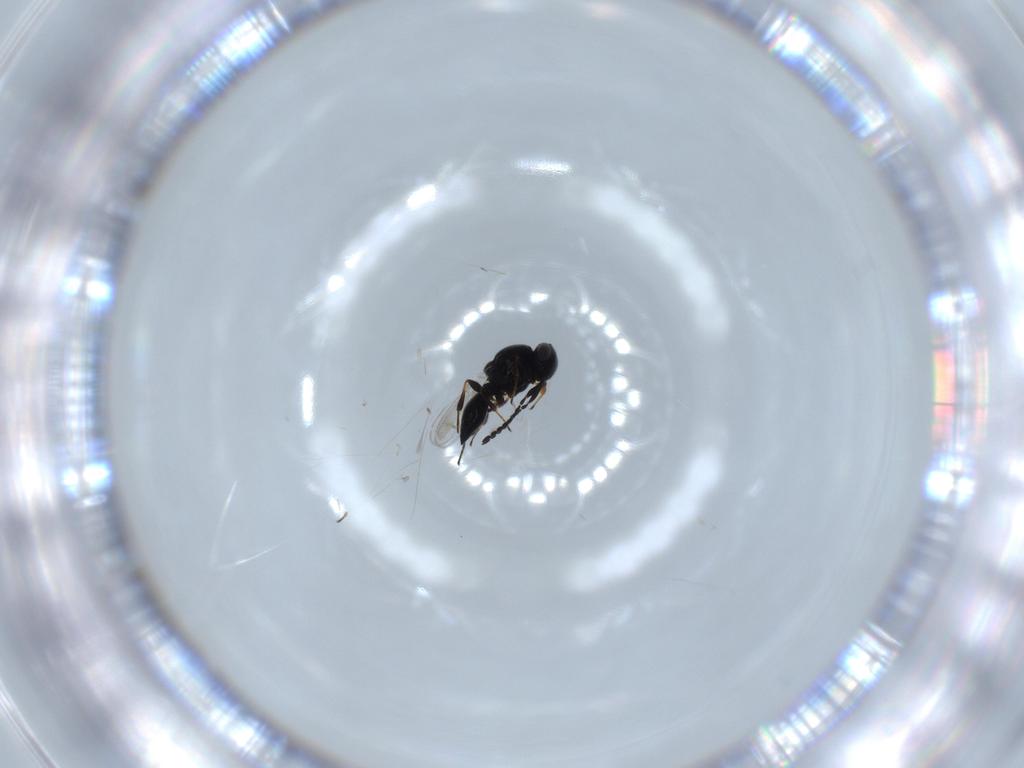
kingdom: Animalia
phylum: Arthropoda
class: Insecta
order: Hymenoptera
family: Platygastridae
